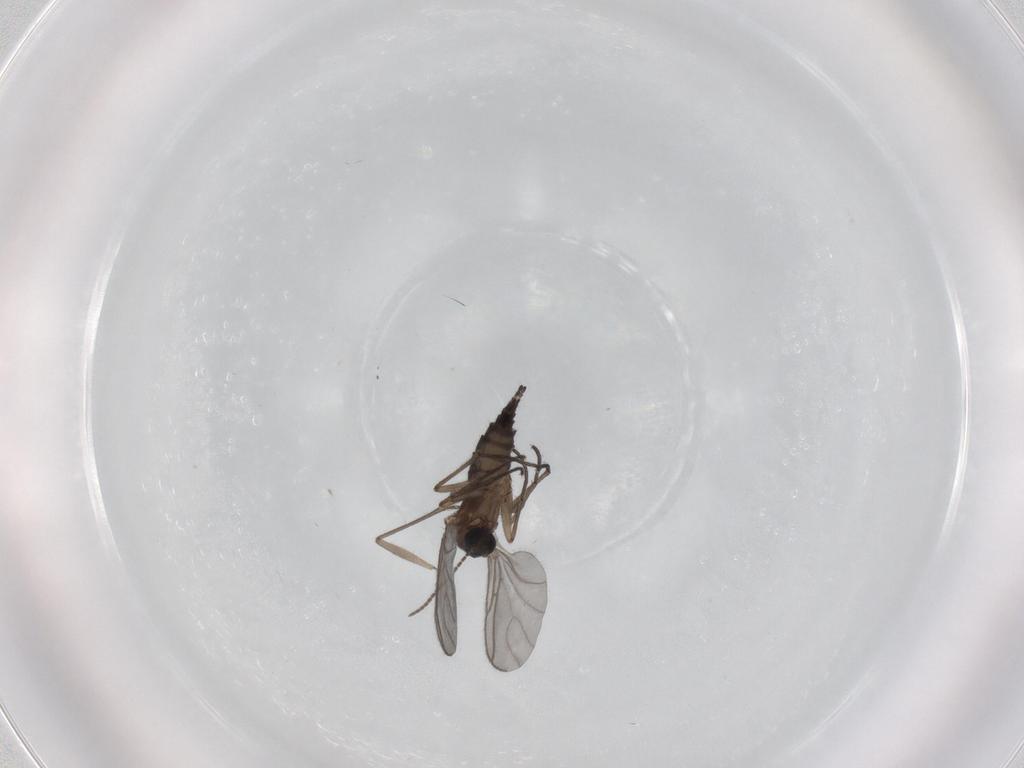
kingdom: Animalia
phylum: Arthropoda
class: Insecta
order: Diptera
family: Sciaridae
